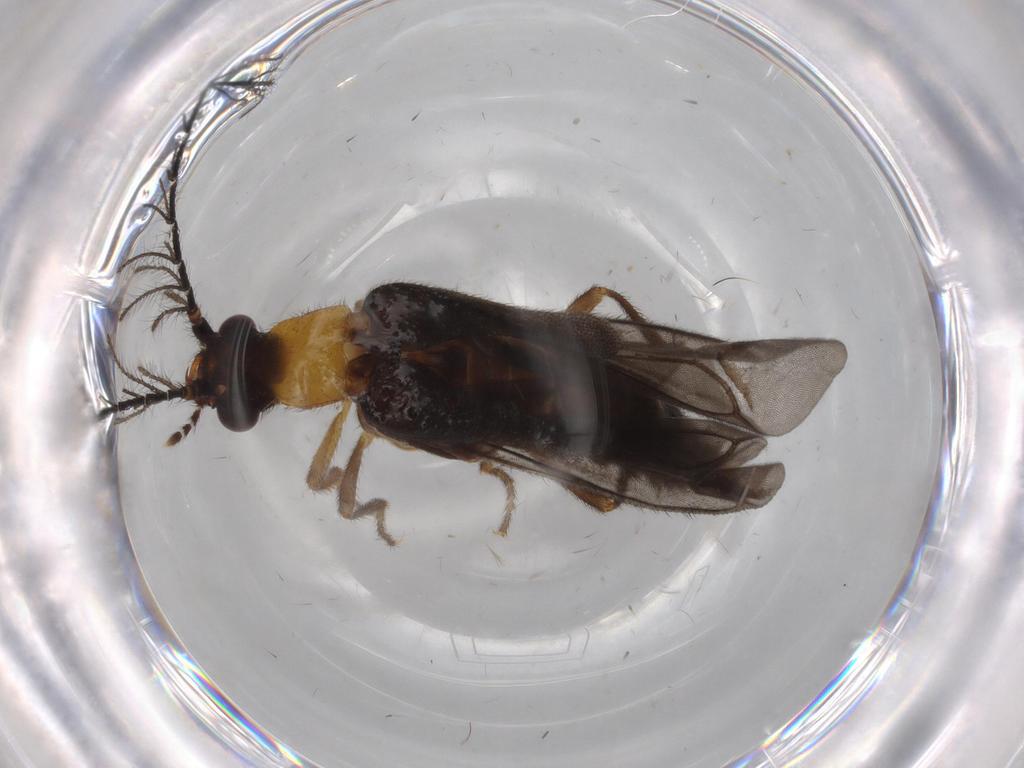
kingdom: Animalia
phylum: Arthropoda
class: Insecta
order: Coleoptera
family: Phengodidae
